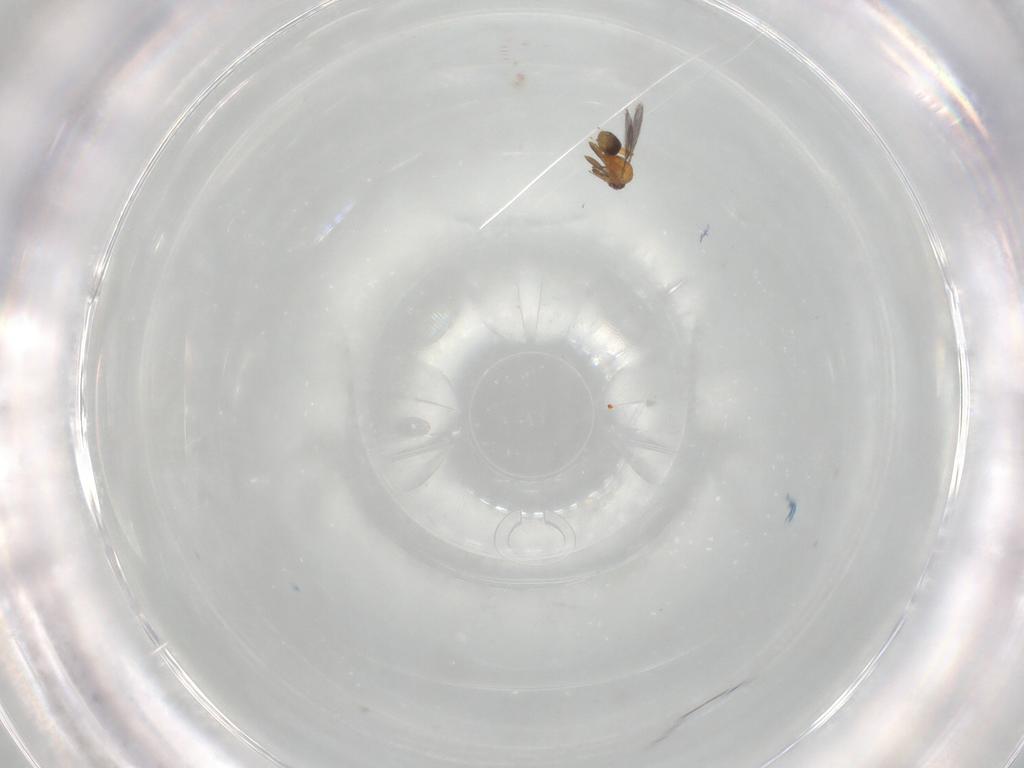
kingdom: Animalia
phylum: Arthropoda
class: Insecta
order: Hymenoptera
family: Mymaridae
